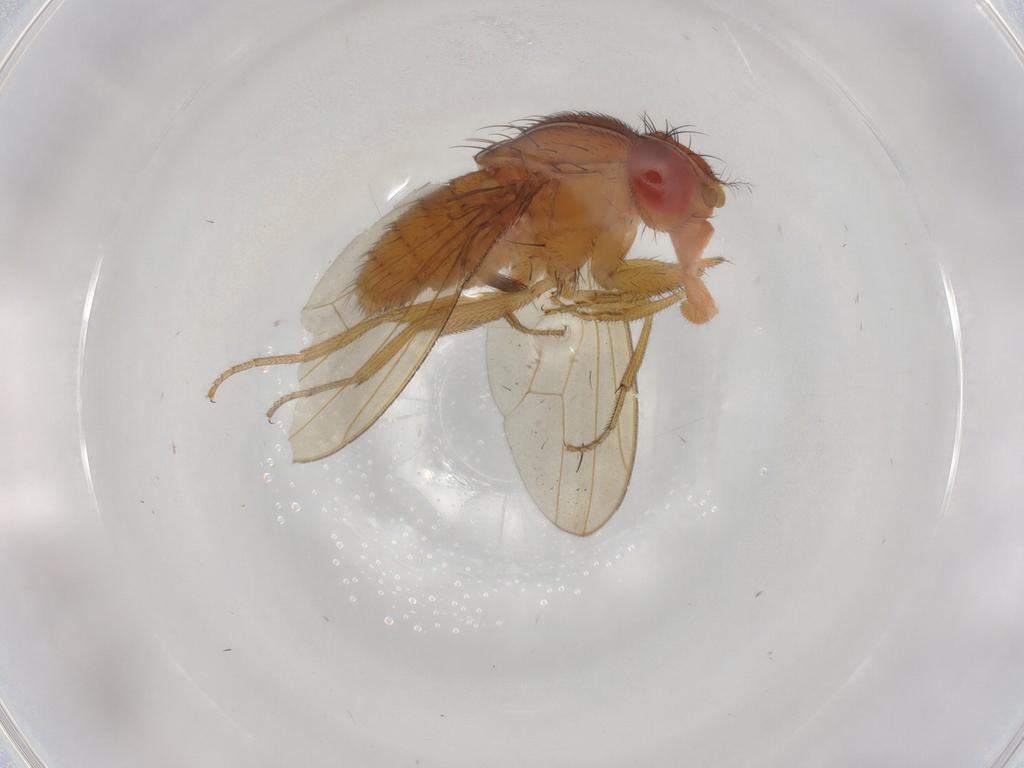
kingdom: Animalia
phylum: Arthropoda
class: Insecta
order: Diptera
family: Drosophilidae
